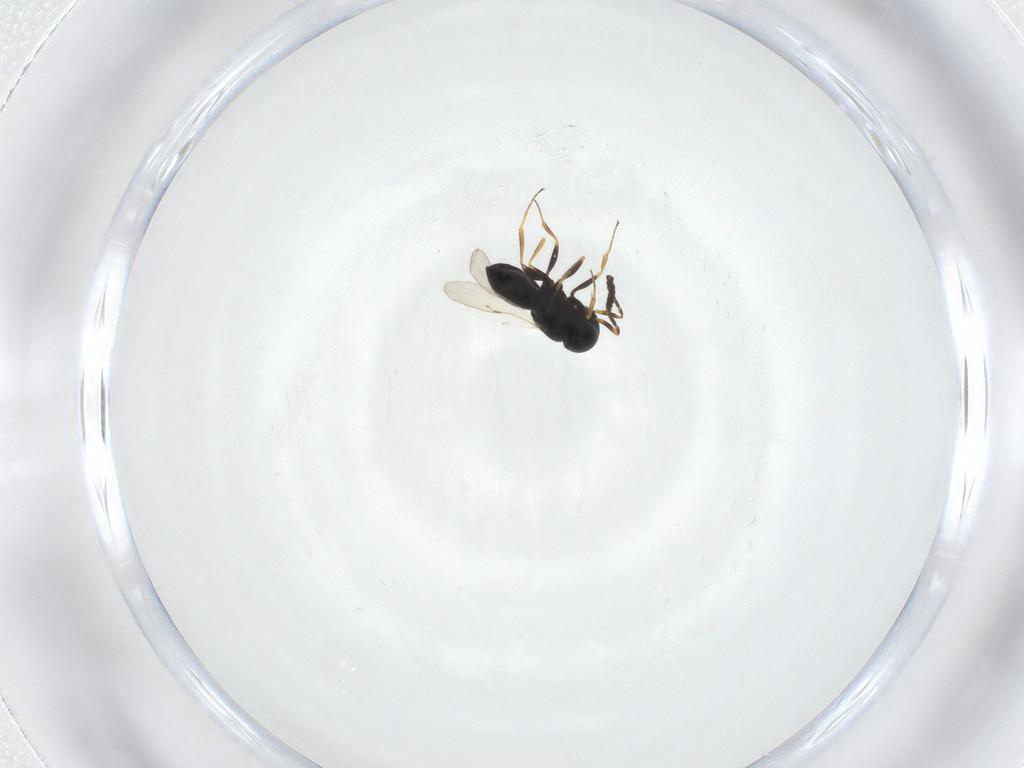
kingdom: Animalia
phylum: Arthropoda
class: Insecta
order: Hymenoptera
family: Scelionidae
